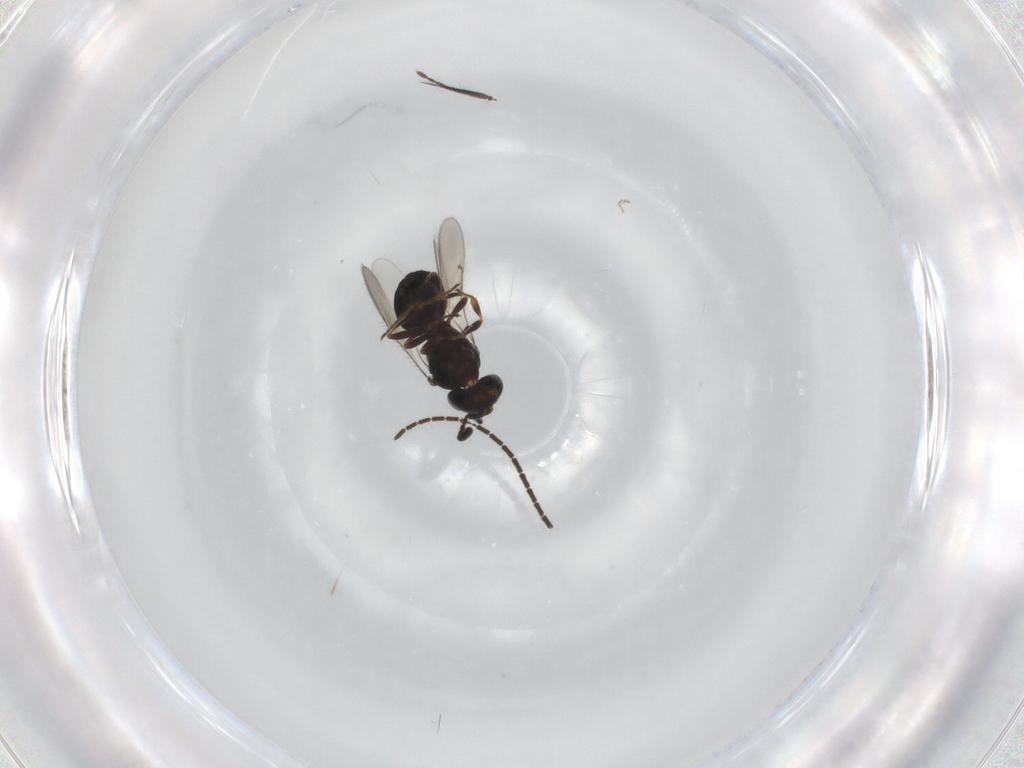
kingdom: Animalia
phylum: Arthropoda
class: Insecta
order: Hymenoptera
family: Scelionidae
